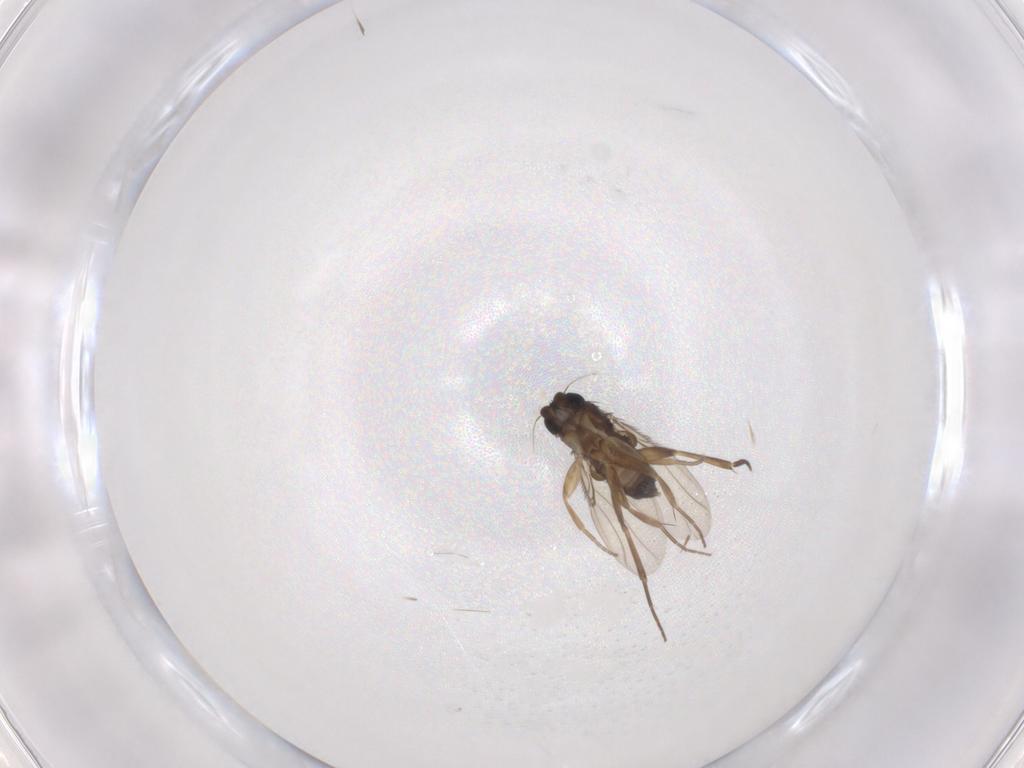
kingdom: Animalia
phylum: Arthropoda
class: Insecta
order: Diptera
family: Phoridae
